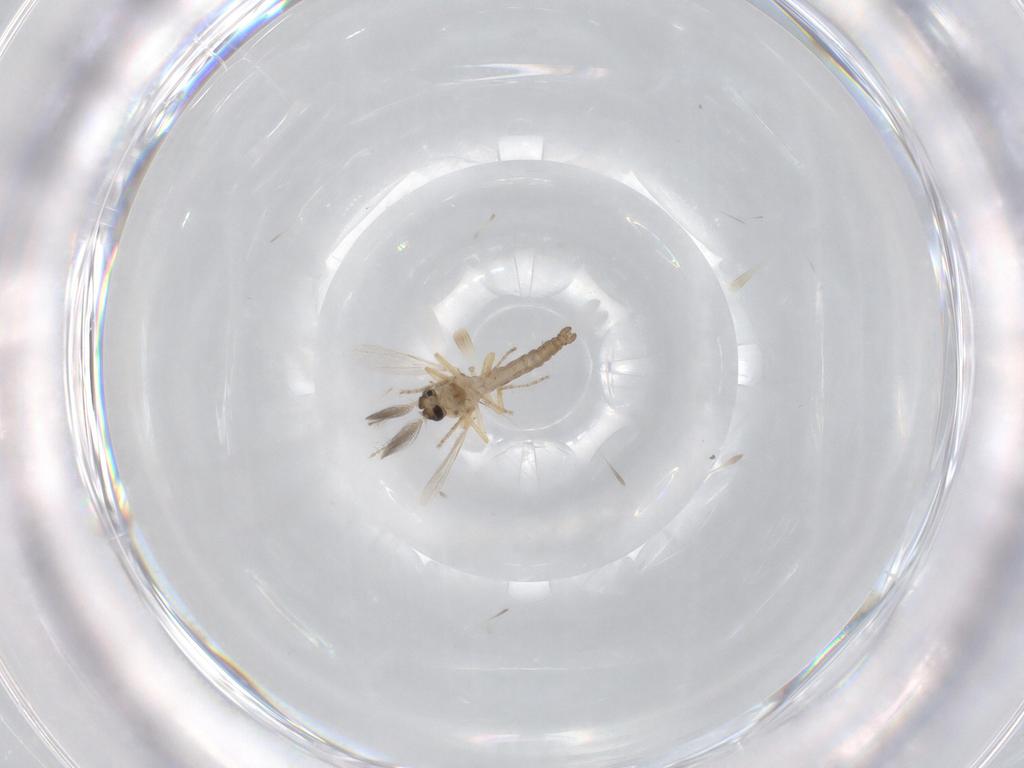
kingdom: Animalia
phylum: Arthropoda
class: Insecta
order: Diptera
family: Ceratopogonidae
